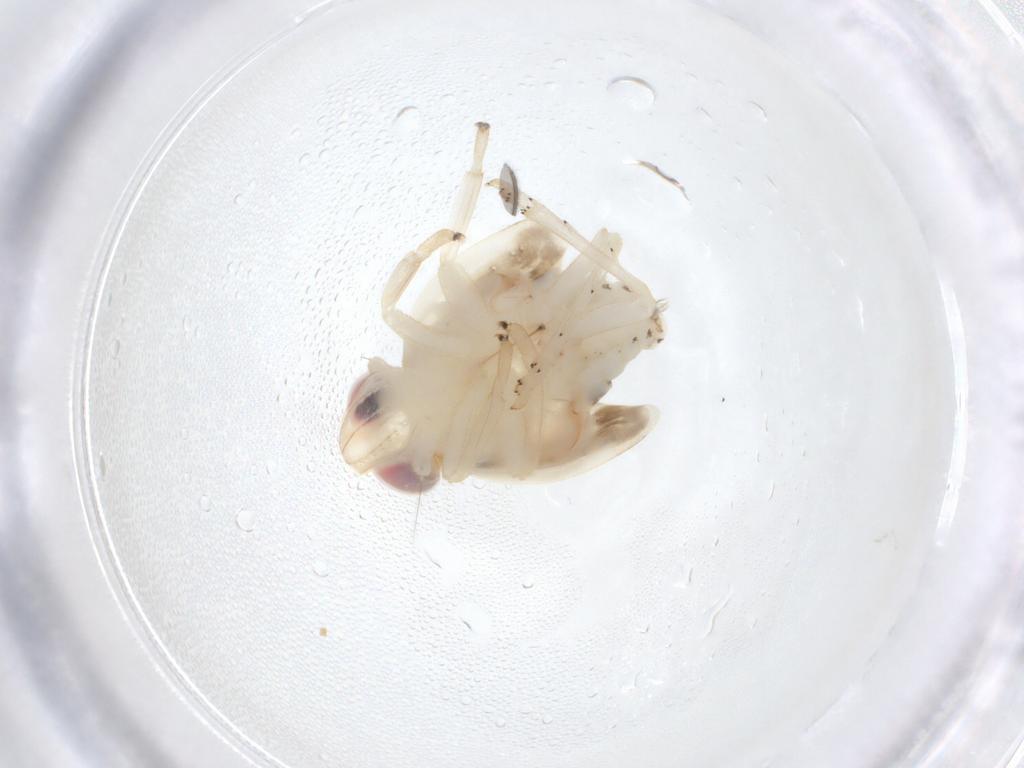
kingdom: Animalia
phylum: Arthropoda
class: Insecta
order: Hemiptera
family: Nogodinidae
